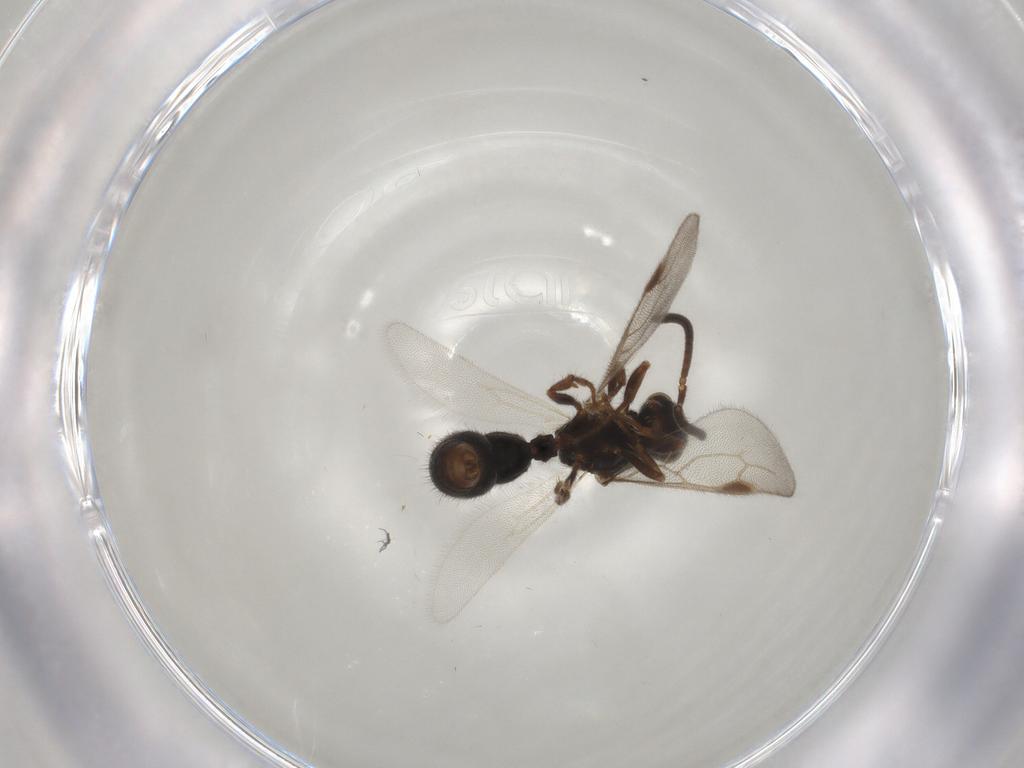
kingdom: Animalia
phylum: Arthropoda
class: Insecta
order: Hymenoptera
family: Formicidae
